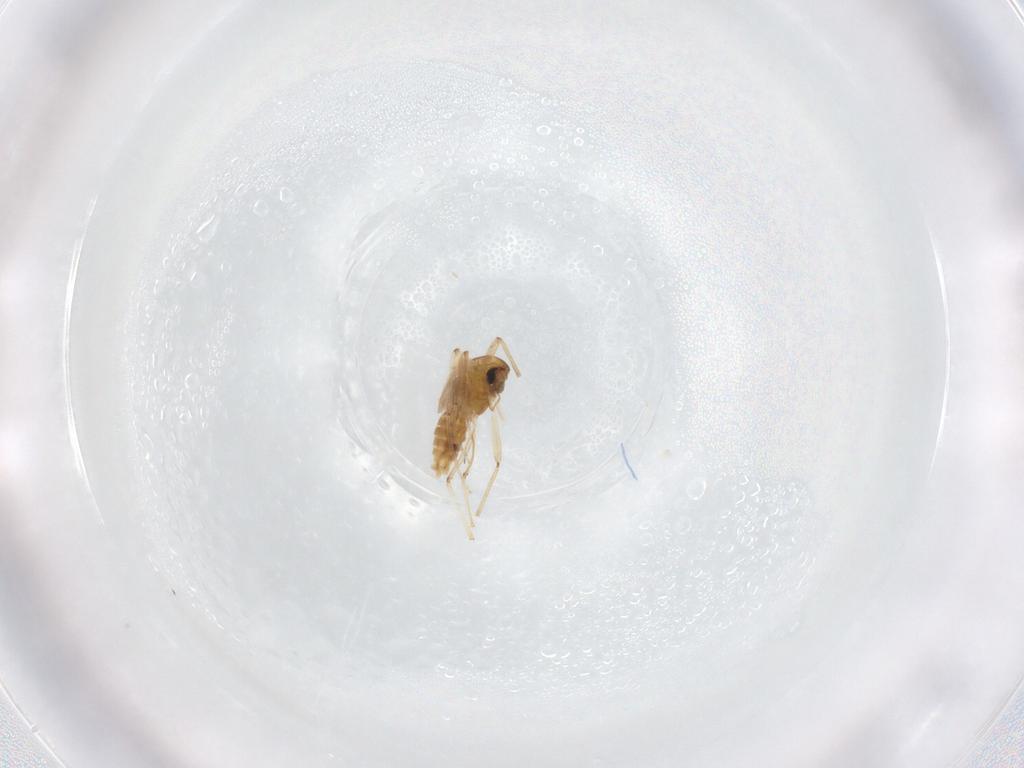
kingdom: Animalia
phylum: Arthropoda
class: Insecta
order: Diptera
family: Chironomidae
